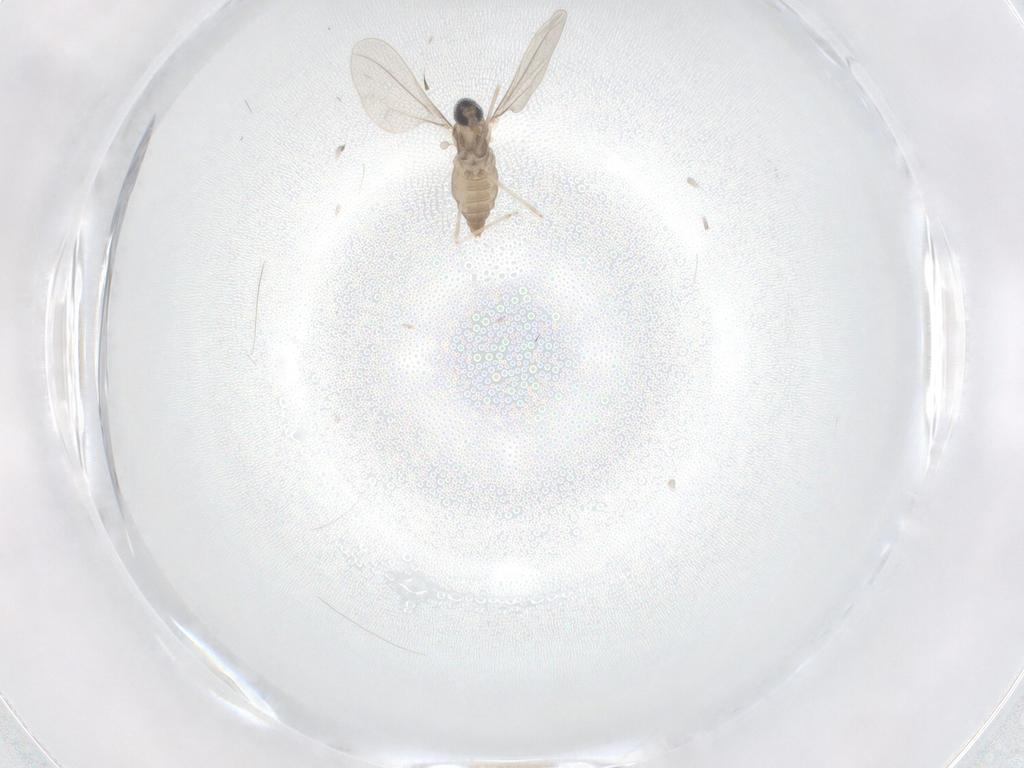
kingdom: Animalia
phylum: Arthropoda
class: Insecta
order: Diptera
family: Cecidomyiidae
